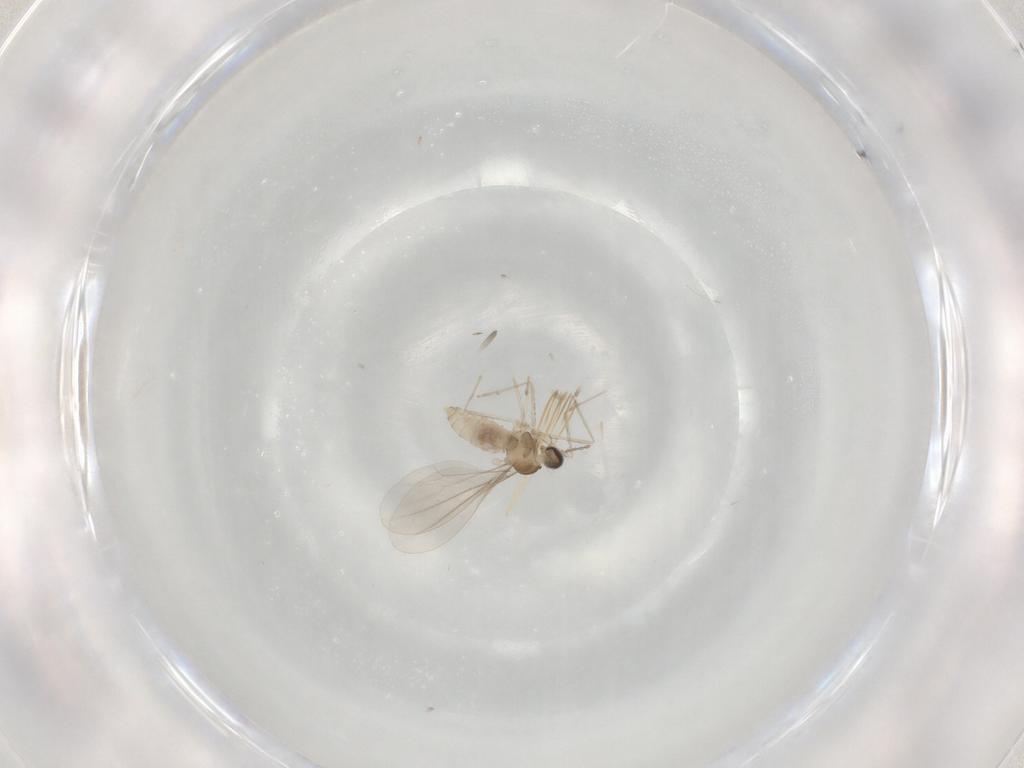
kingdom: Animalia
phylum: Arthropoda
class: Insecta
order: Diptera
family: Cecidomyiidae
